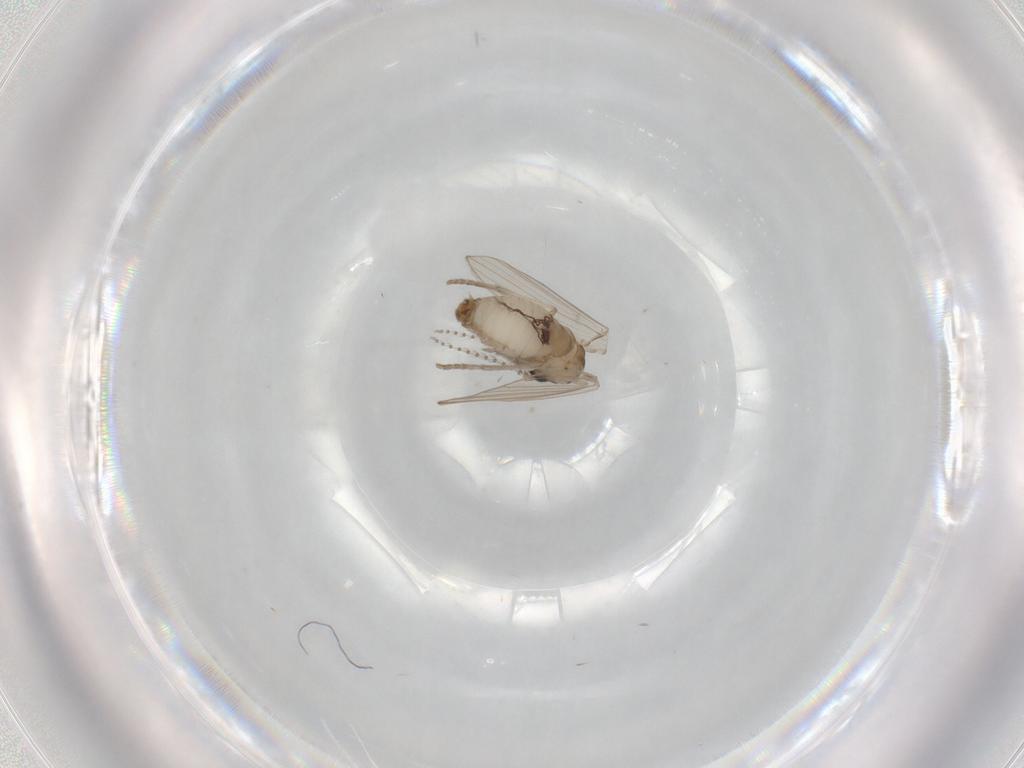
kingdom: Animalia
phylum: Arthropoda
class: Insecta
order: Diptera
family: Psychodidae
